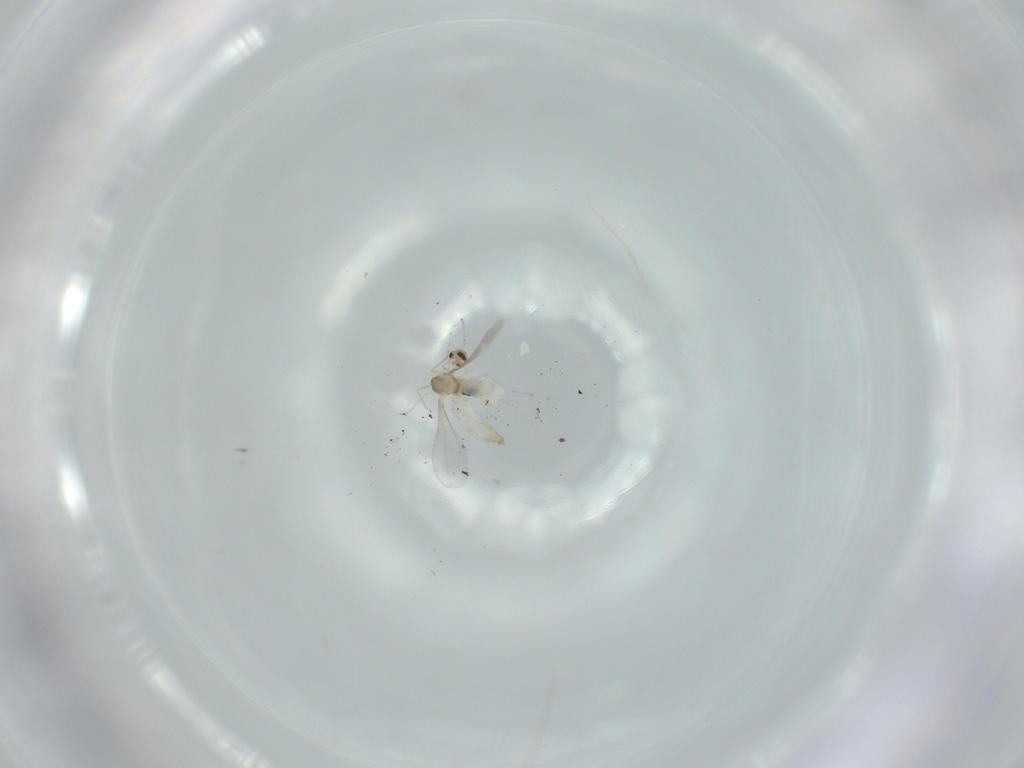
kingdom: Animalia
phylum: Arthropoda
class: Insecta
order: Diptera
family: Cecidomyiidae
